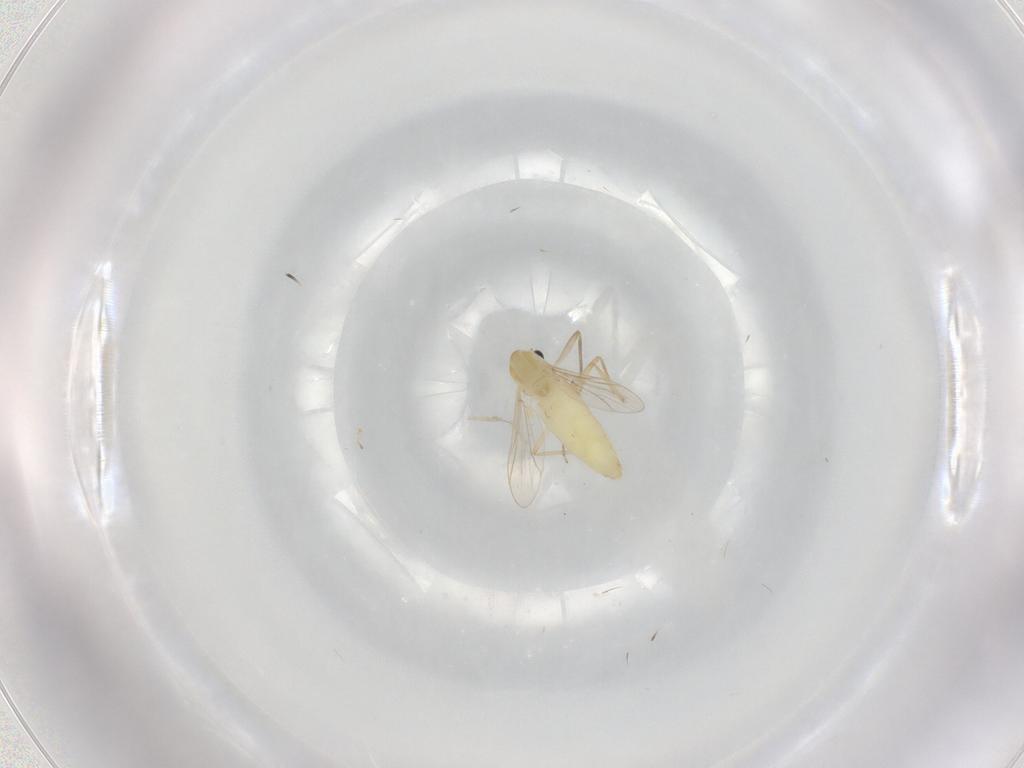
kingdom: Animalia
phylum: Arthropoda
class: Insecta
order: Diptera
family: Chironomidae
